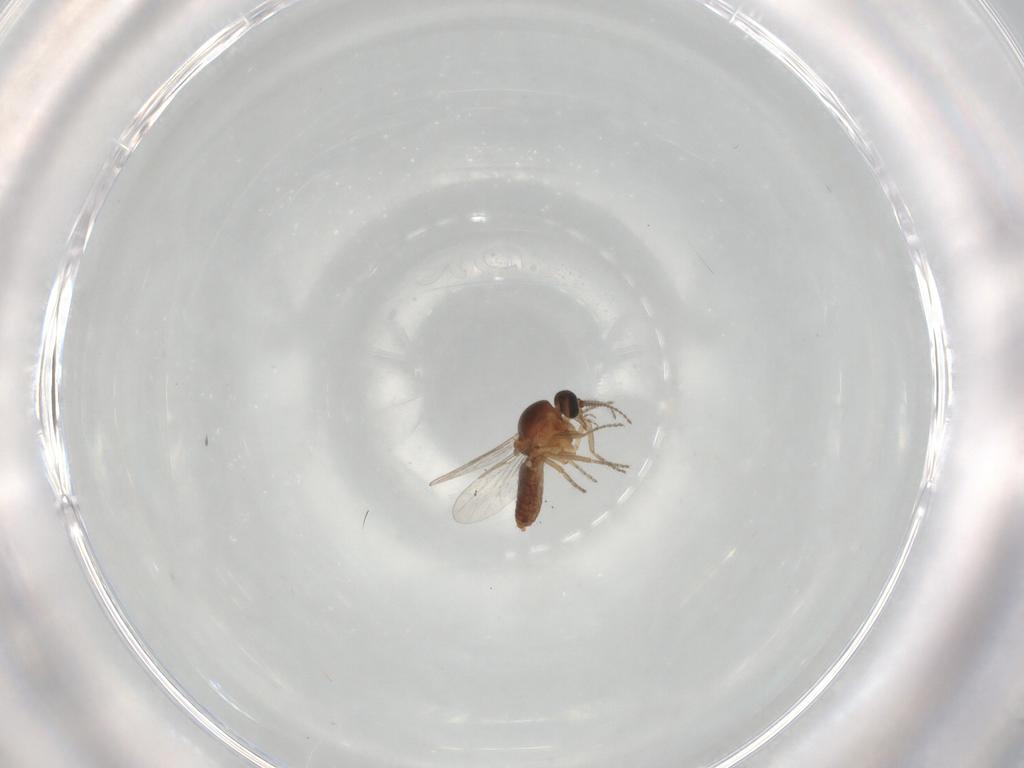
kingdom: Animalia
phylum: Arthropoda
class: Insecta
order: Diptera
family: Ceratopogonidae
